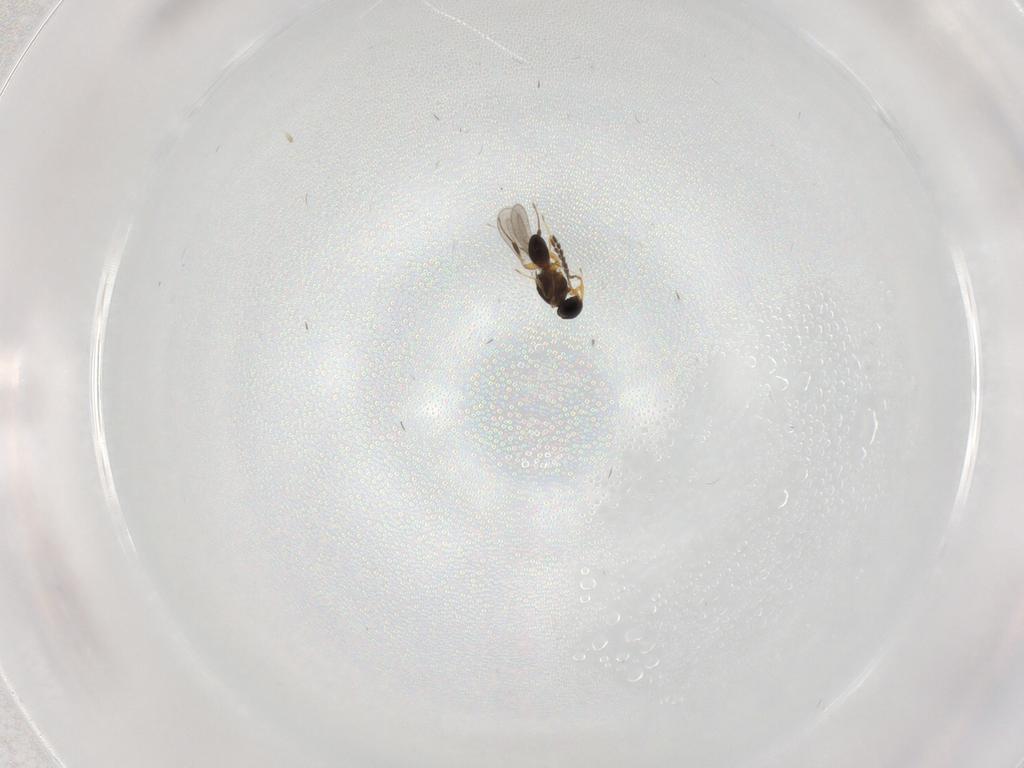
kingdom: Animalia
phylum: Arthropoda
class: Insecta
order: Hymenoptera
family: Platygastridae
